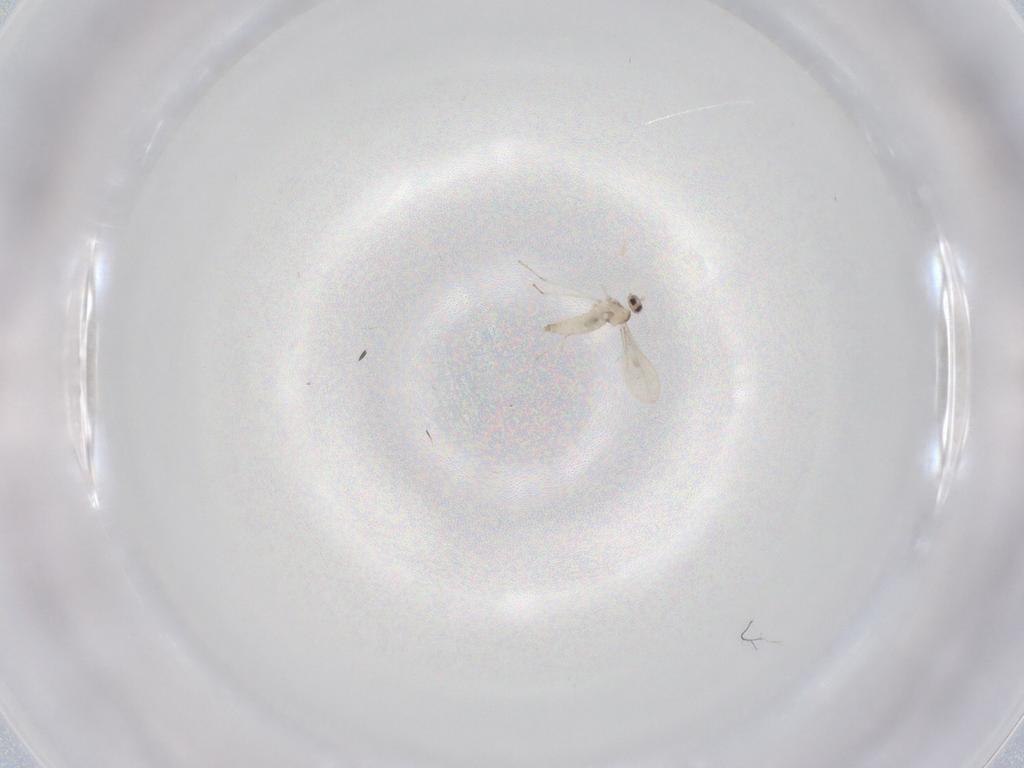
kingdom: Animalia
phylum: Arthropoda
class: Insecta
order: Diptera
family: Cecidomyiidae
